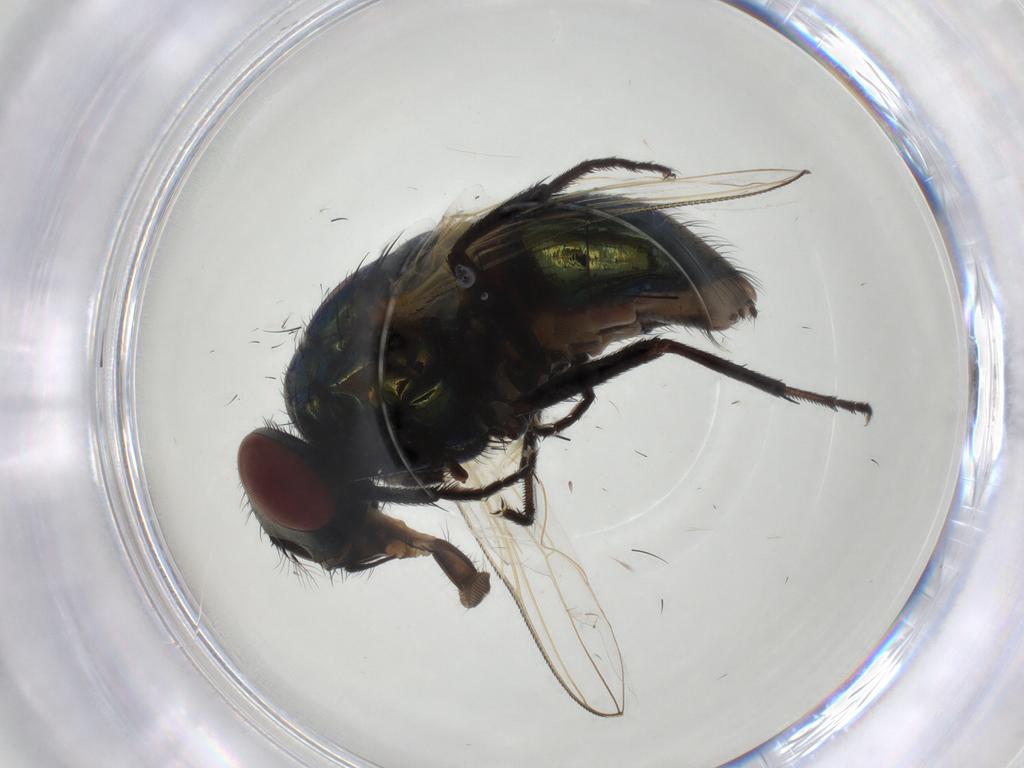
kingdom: Animalia
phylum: Arthropoda
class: Insecta
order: Diptera
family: Muscidae
